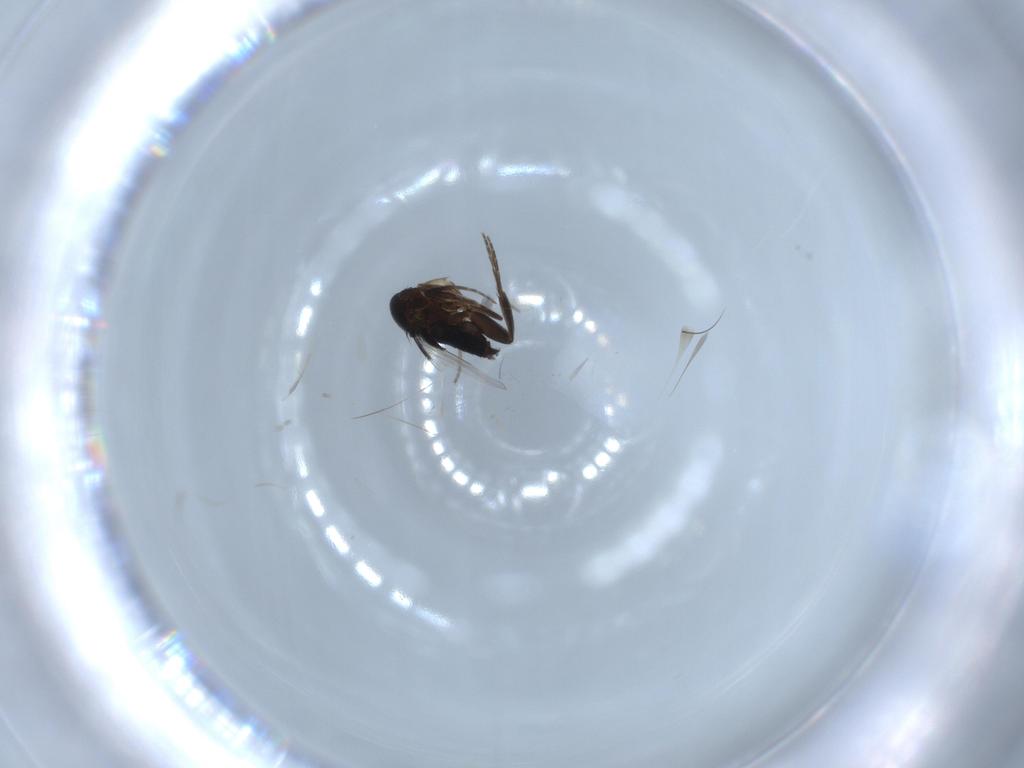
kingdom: Animalia
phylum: Arthropoda
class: Insecta
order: Diptera
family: Phoridae
